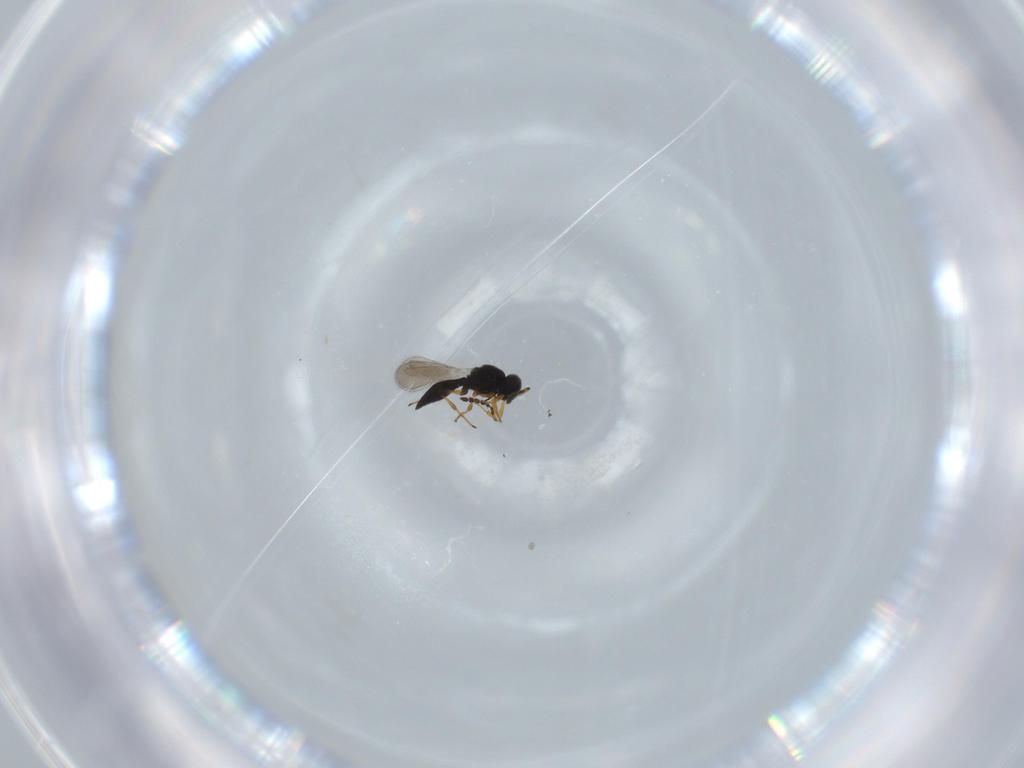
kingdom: Animalia
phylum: Arthropoda
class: Insecta
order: Hymenoptera
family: Platygastridae
